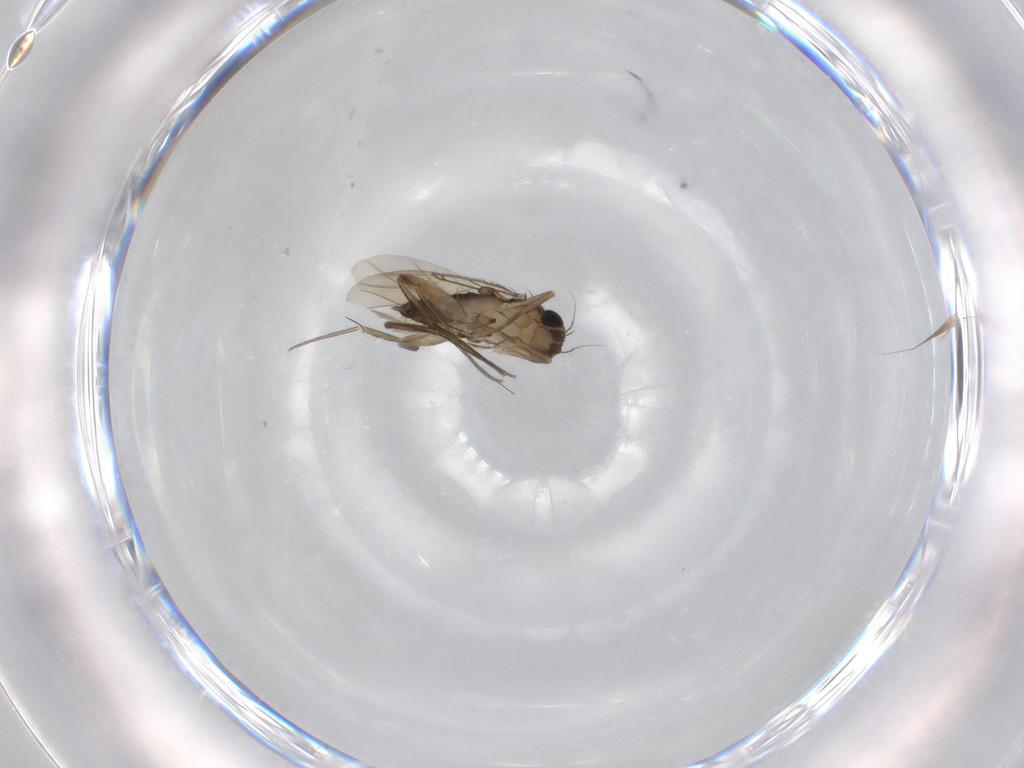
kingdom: Animalia
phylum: Arthropoda
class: Insecta
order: Diptera
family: Phoridae
